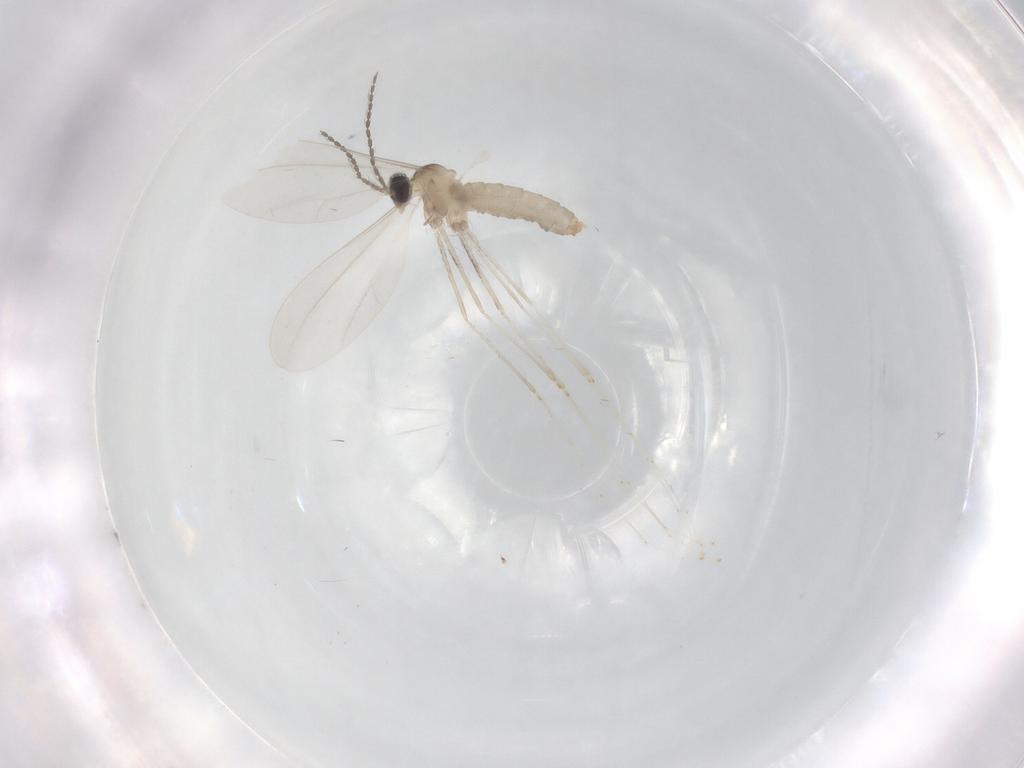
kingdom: Animalia
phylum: Arthropoda
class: Insecta
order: Diptera
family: Cecidomyiidae
